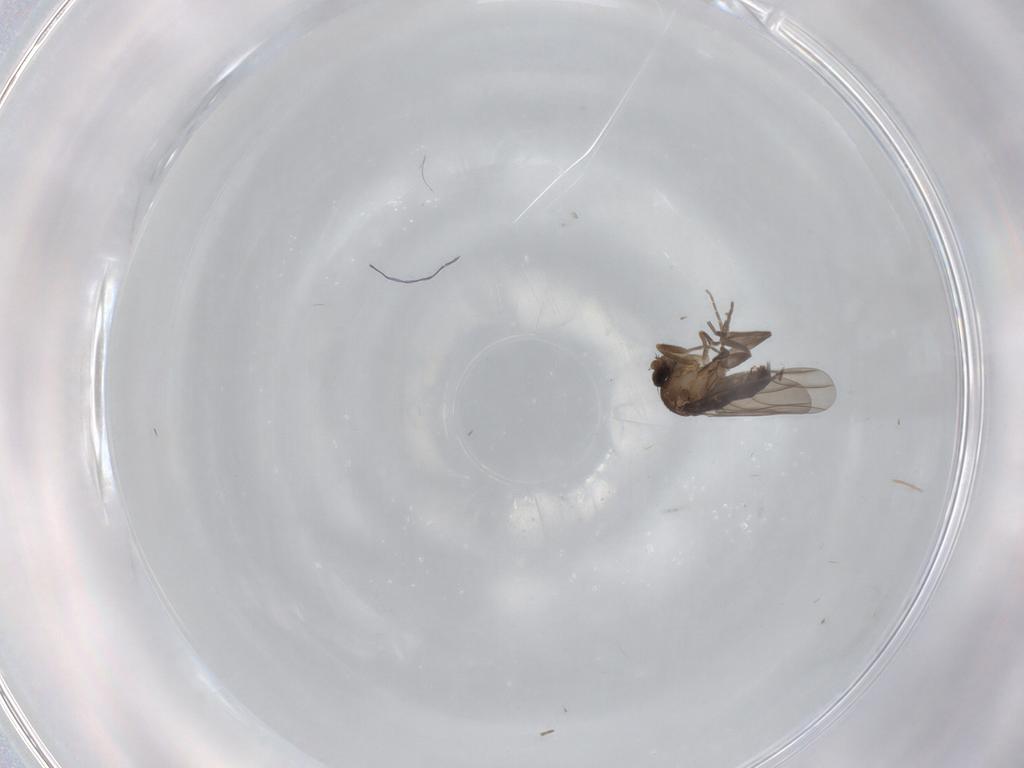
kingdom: Animalia
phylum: Arthropoda
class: Insecta
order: Diptera
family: Phoridae
